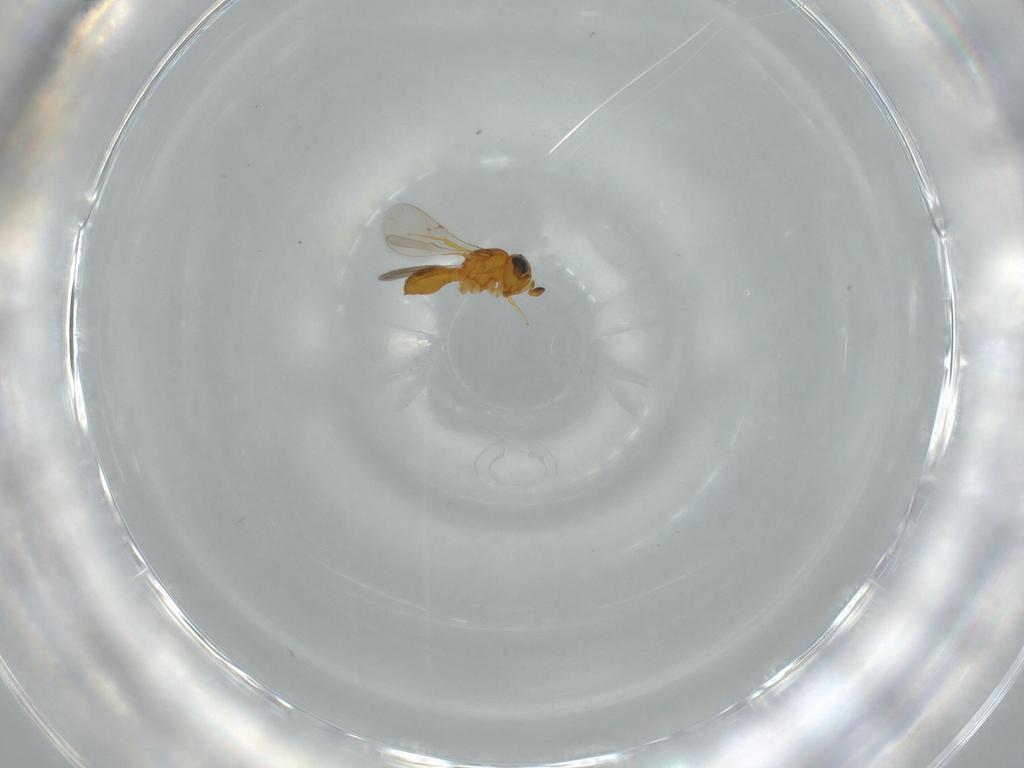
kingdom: Animalia
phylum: Arthropoda
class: Insecta
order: Hymenoptera
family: Scelionidae
